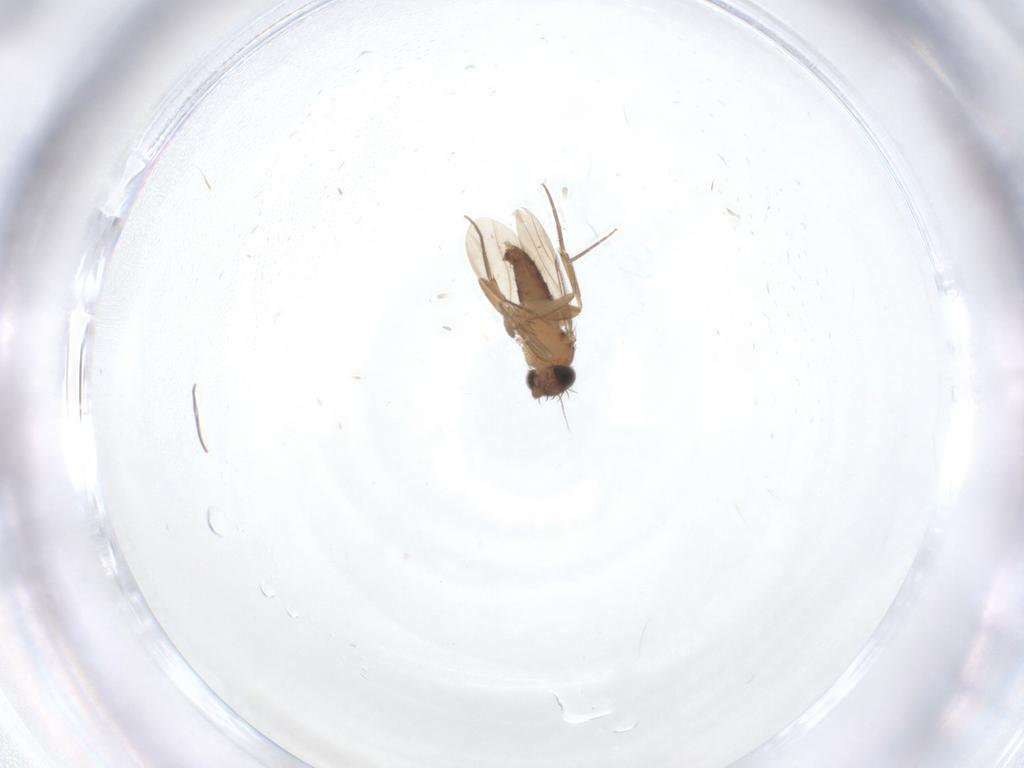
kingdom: Animalia
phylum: Arthropoda
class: Insecta
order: Diptera
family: Phoridae
